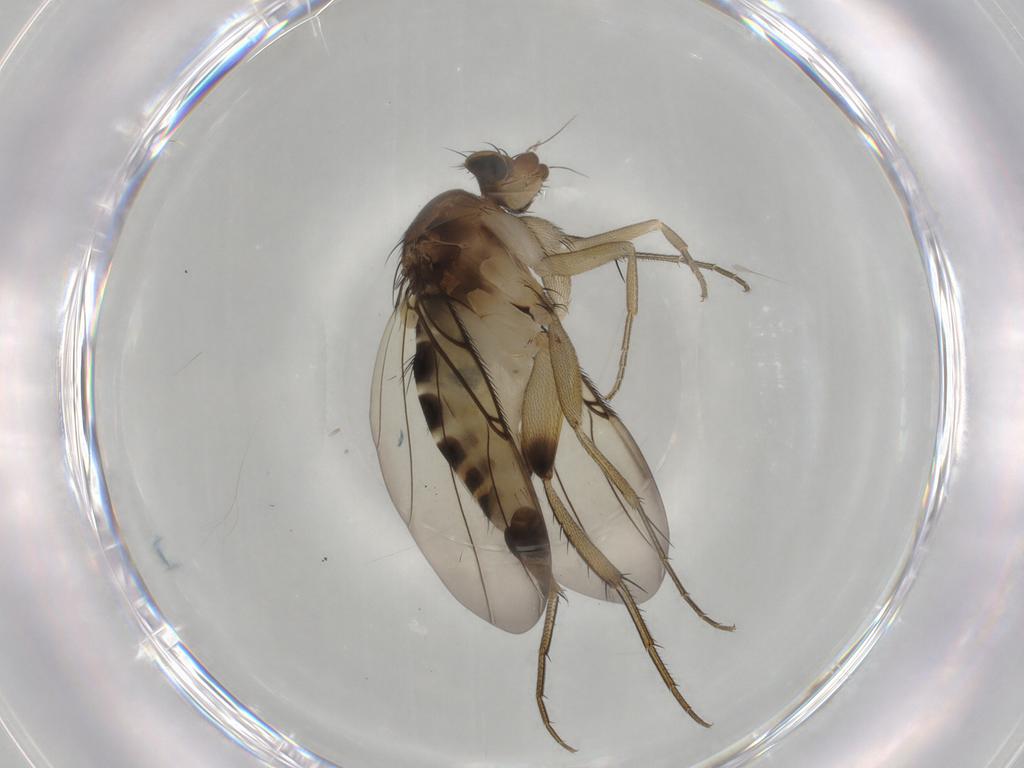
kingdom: Animalia
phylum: Arthropoda
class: Insecta
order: Diptera
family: Phoridae
